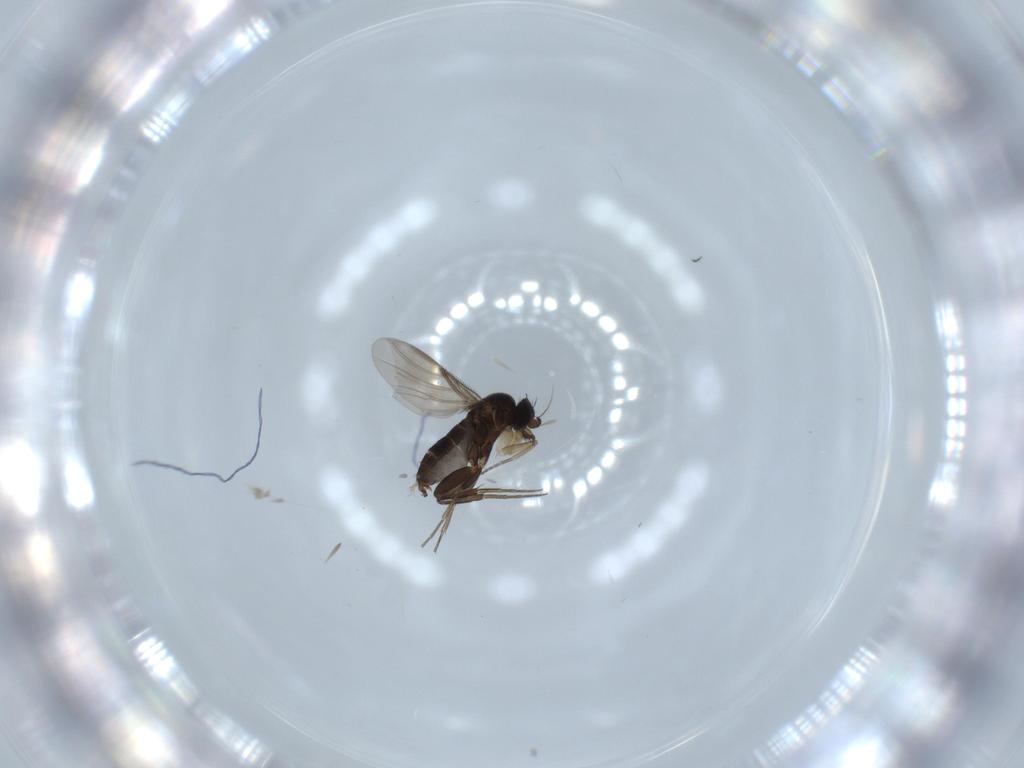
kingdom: Animalia
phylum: Arthropoda
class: Insecta
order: Diptera
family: Phoridae
